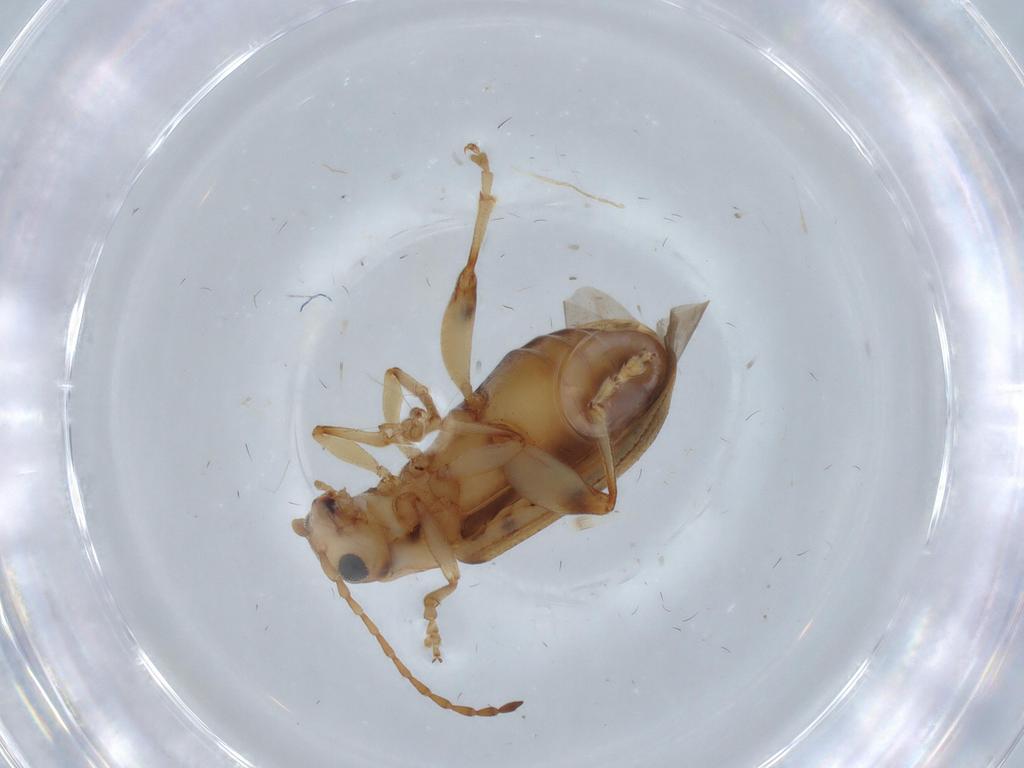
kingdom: Animalia
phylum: Arthropoda
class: Insecta
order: Coleoptera
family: Chrysomelidae
